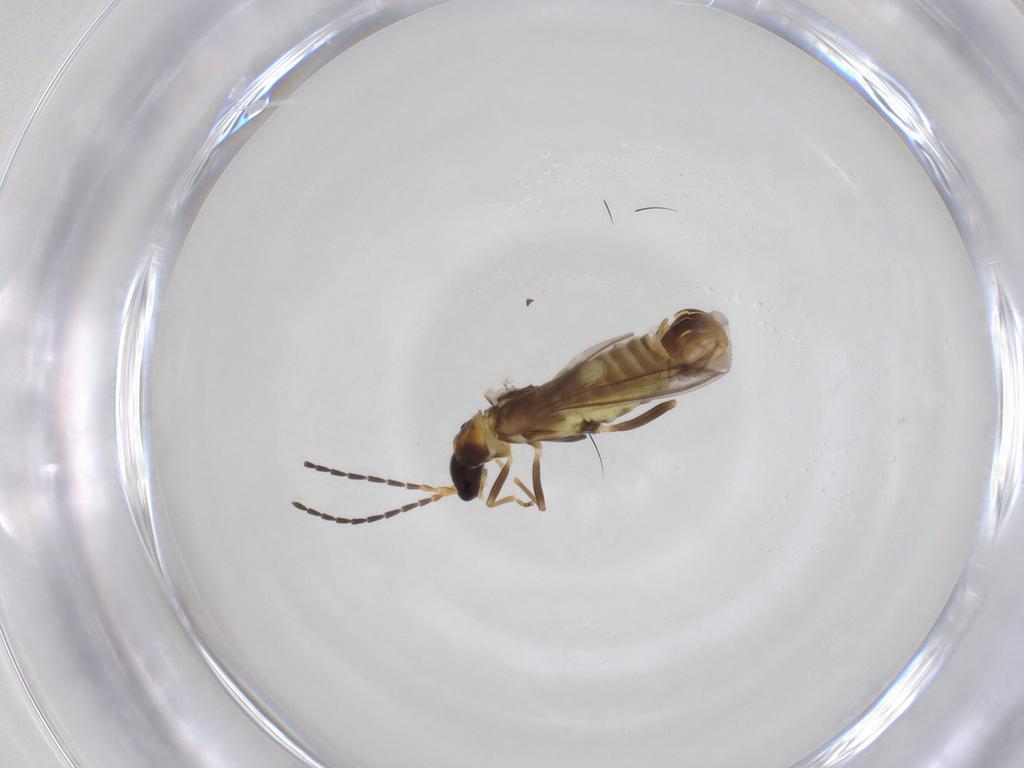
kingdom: Animalia
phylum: Arthropoda
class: Insecta
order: Coleoptera
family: Cantharidae
